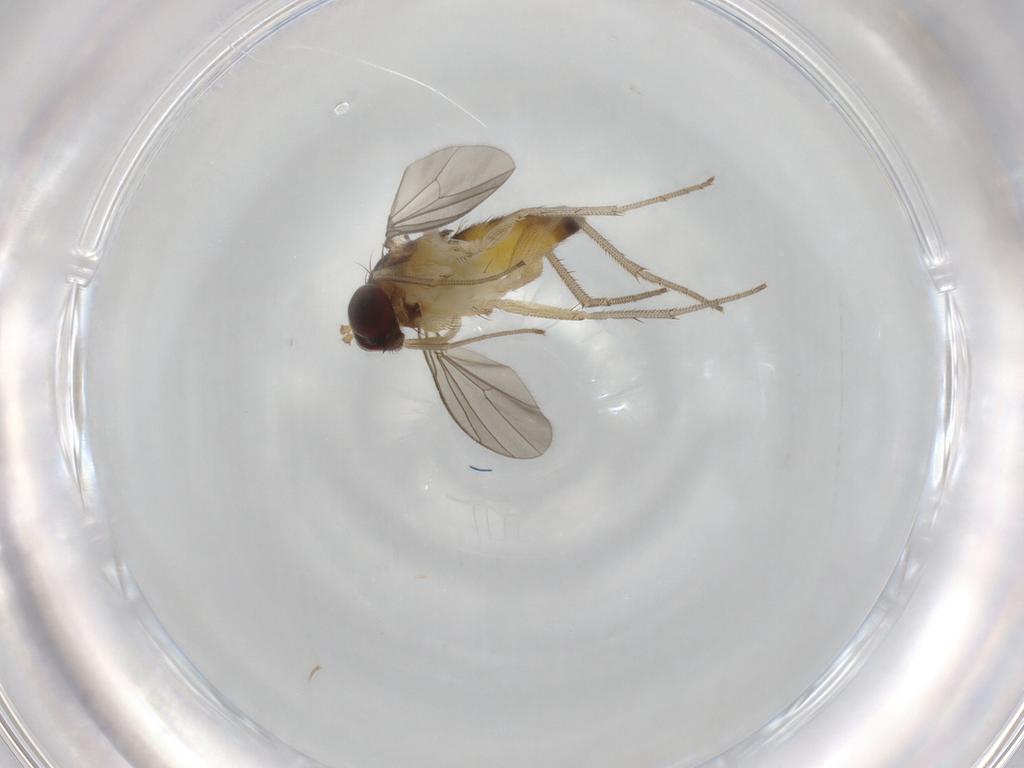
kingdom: Animalia
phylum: Arthropoda
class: Insecta
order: Diptera
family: Dolichopodidae
